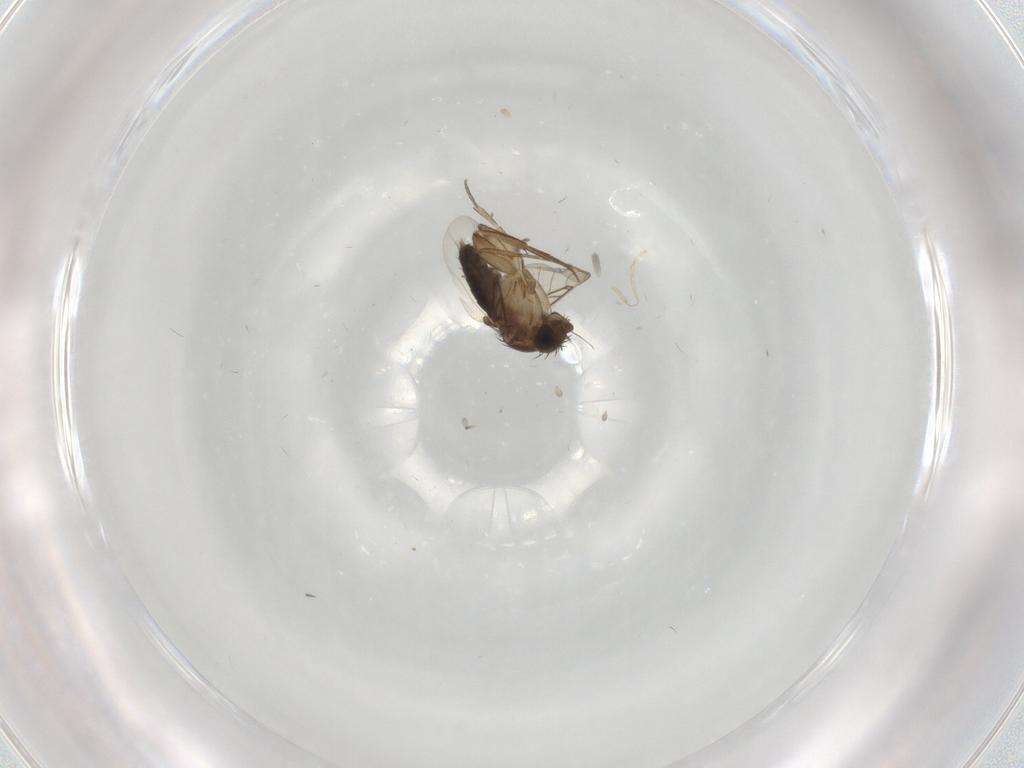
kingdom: Animalia
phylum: Arthropoda
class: Insecta
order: Diptera
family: Phoridae
